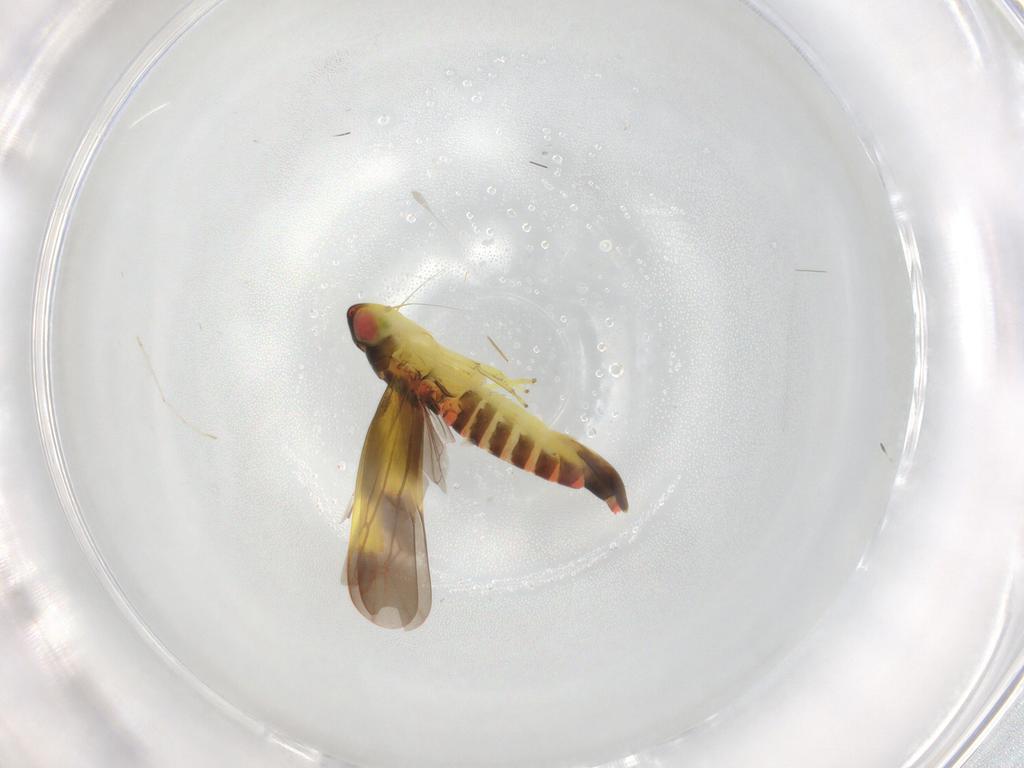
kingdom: Animalia
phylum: Arthropoda
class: Insecta
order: Hemiptera
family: Cicadellidae
